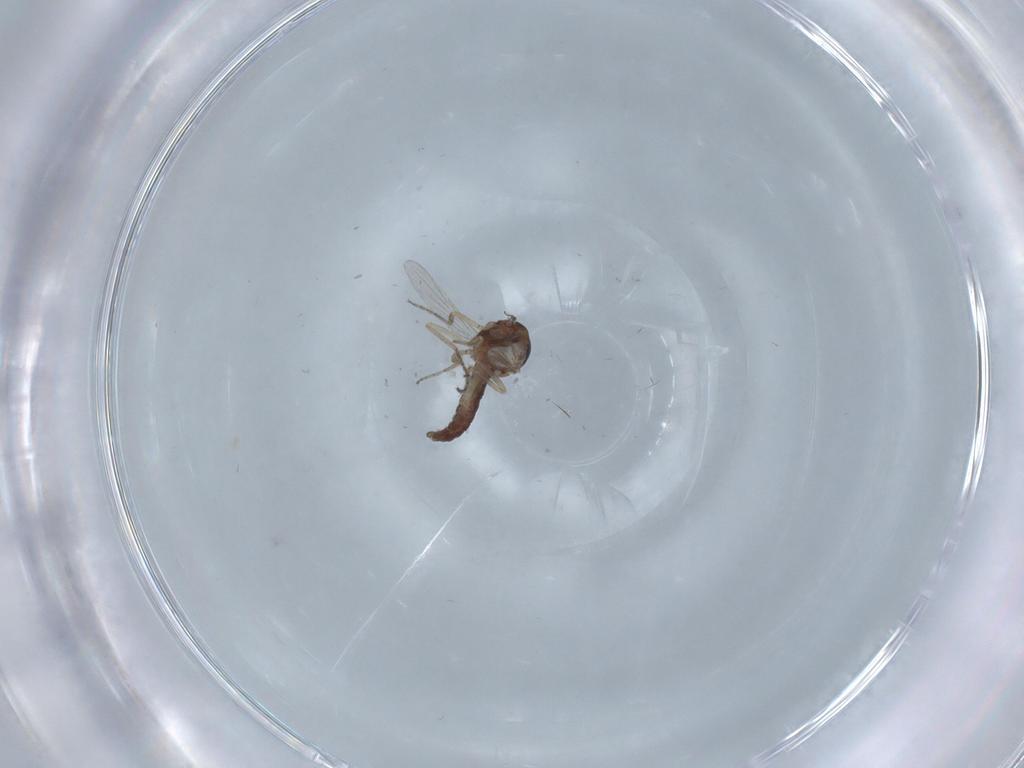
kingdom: Animalia
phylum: Arthropoda
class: Insecta
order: Diptera
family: Ceratopogonidae
